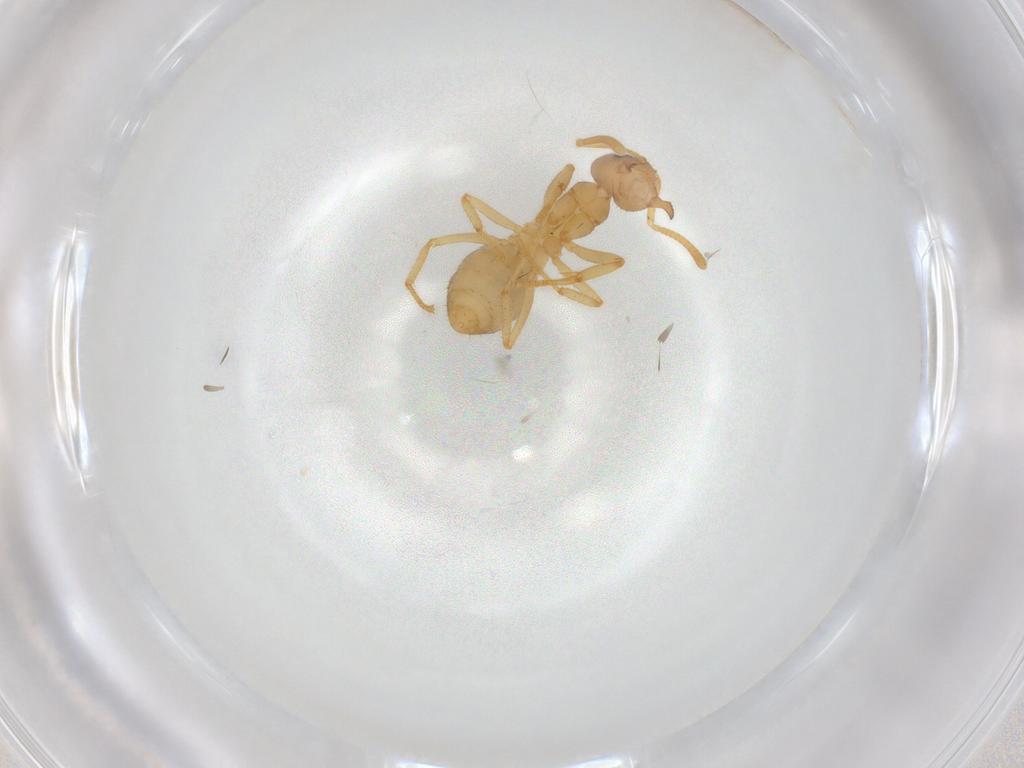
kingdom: Animalia
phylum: Arthropoda
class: Insecta
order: Hymenoptera
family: Formicidae
